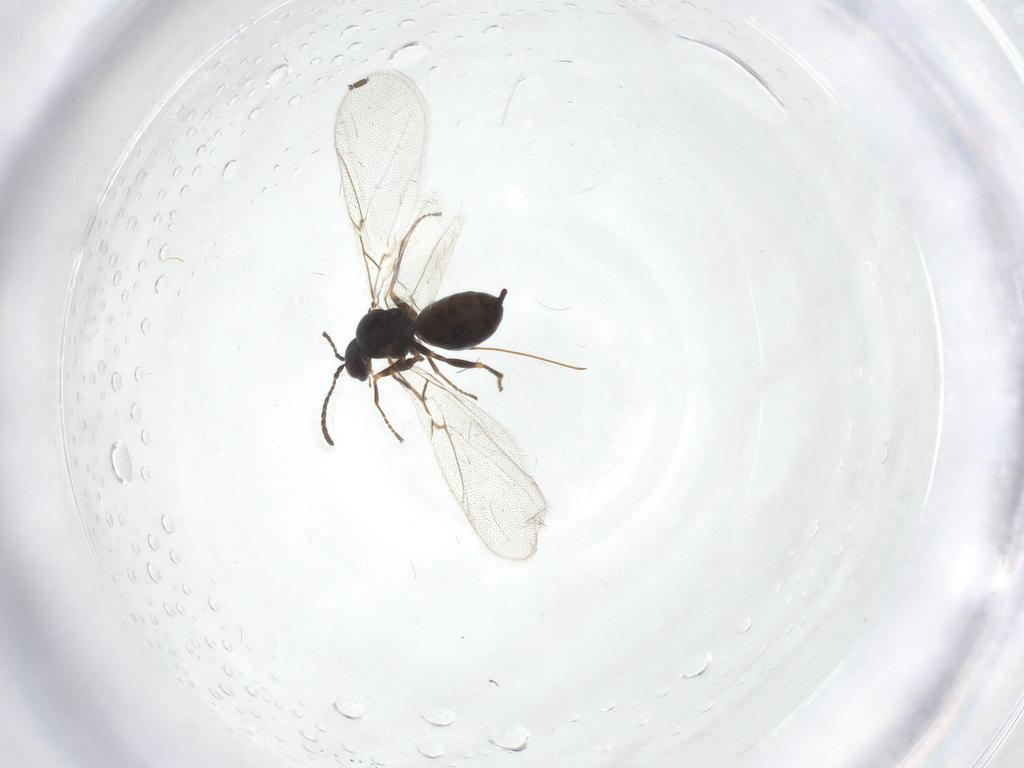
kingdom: Animalia
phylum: Arthropoda
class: Insecta
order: Hymenoptera
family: Cynipidae
